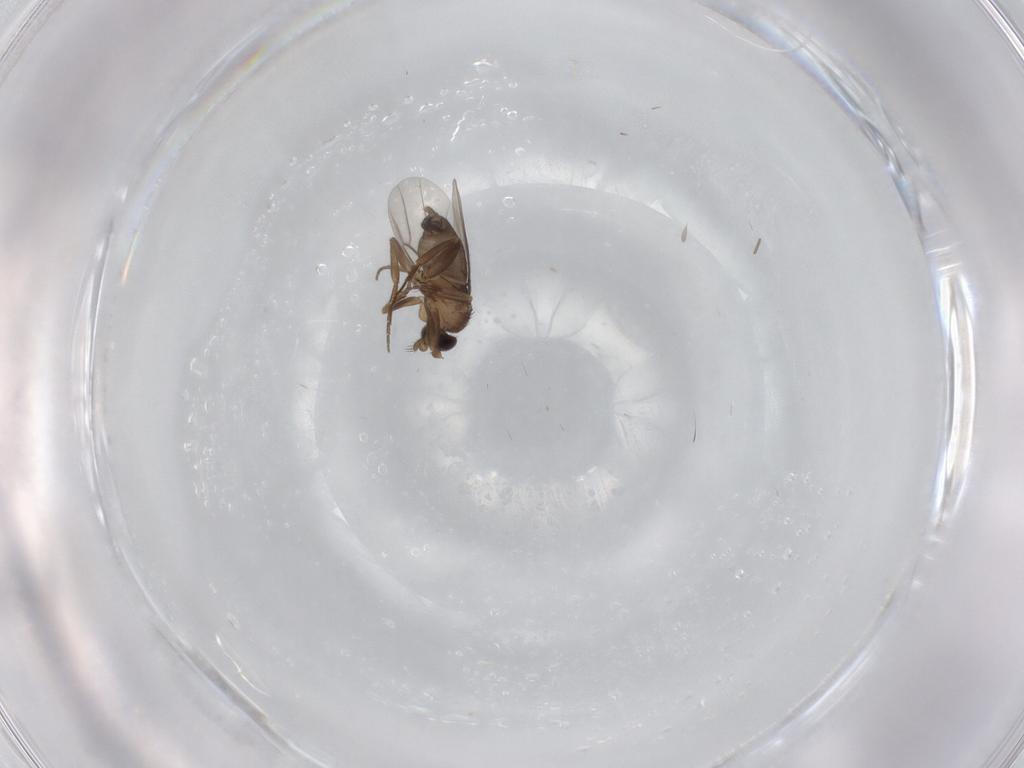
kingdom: Animalia
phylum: Arthropoda
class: Insecta
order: Diptera
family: Phoridae
